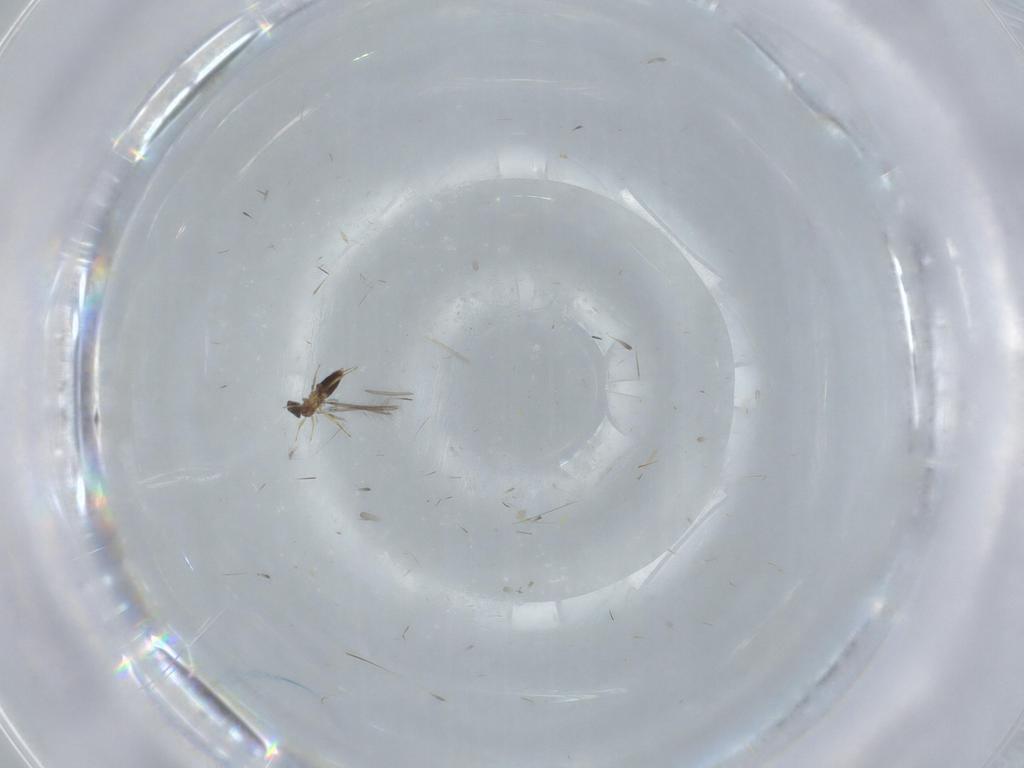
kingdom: Animalia
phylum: Arthropoda
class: Insecta
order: Hymenoptera
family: Mymaridae
